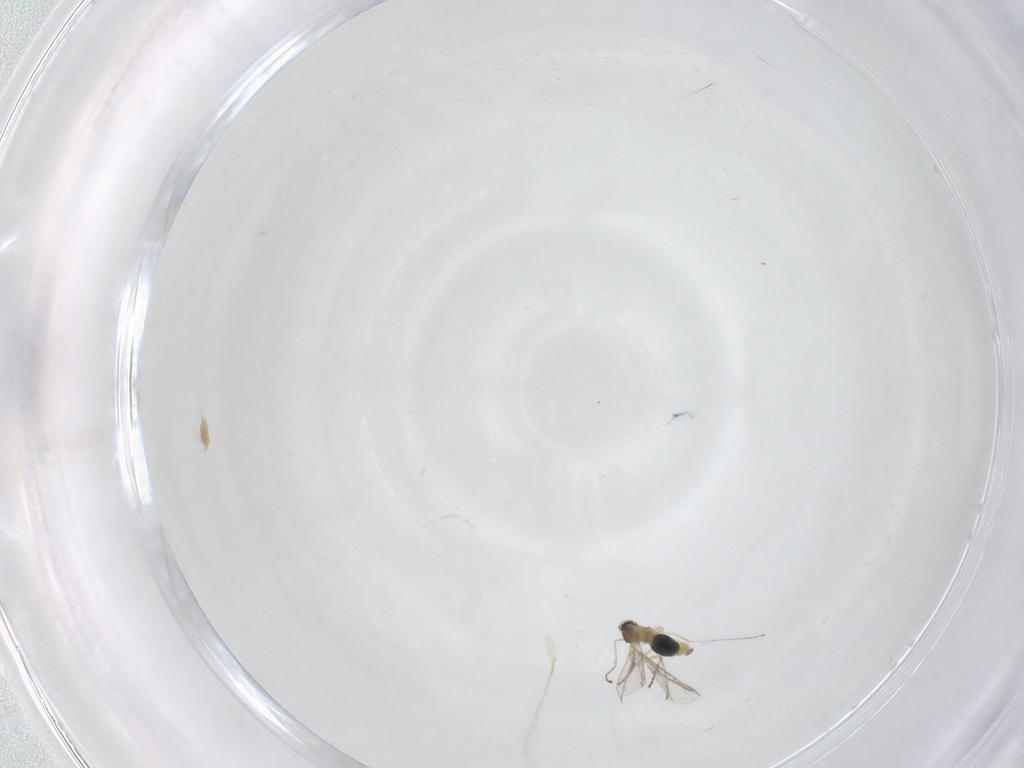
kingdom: Animalia
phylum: Arthropoda
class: Insecta
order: Diptera
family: Cecidomyiidae
